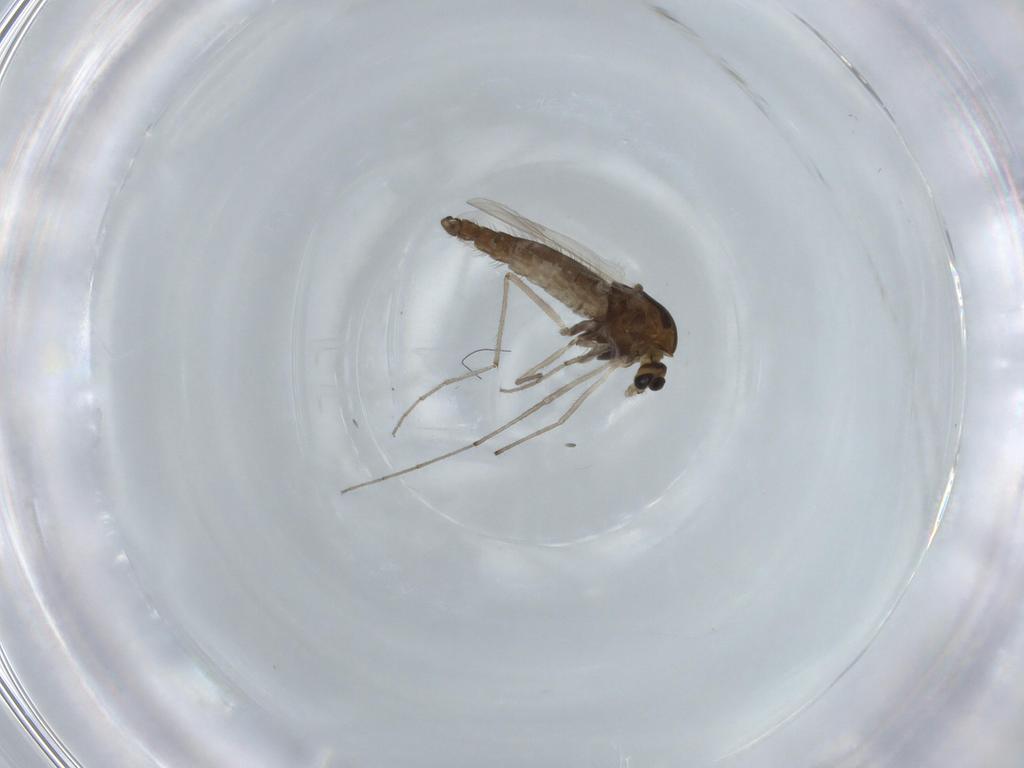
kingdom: Animalia
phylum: Arthropoda
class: Insecta
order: Diptera
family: Chironomidae
